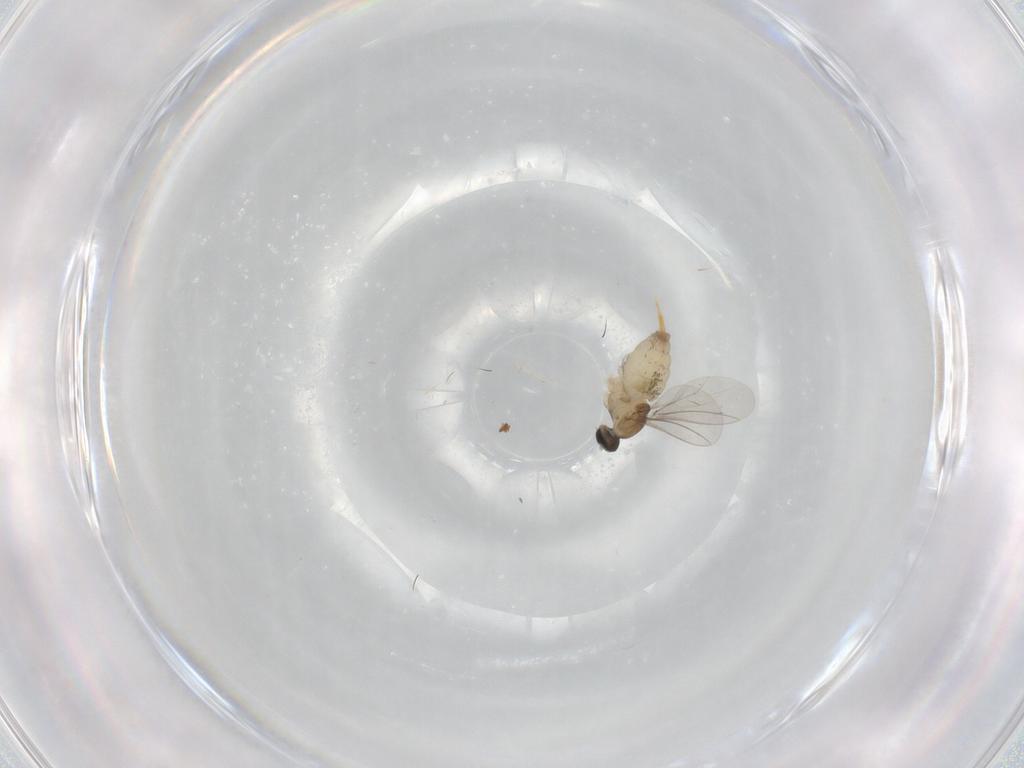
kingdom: Animalia
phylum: Arthropoda
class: Insecta
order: Diptera
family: Cecidomyiidae
